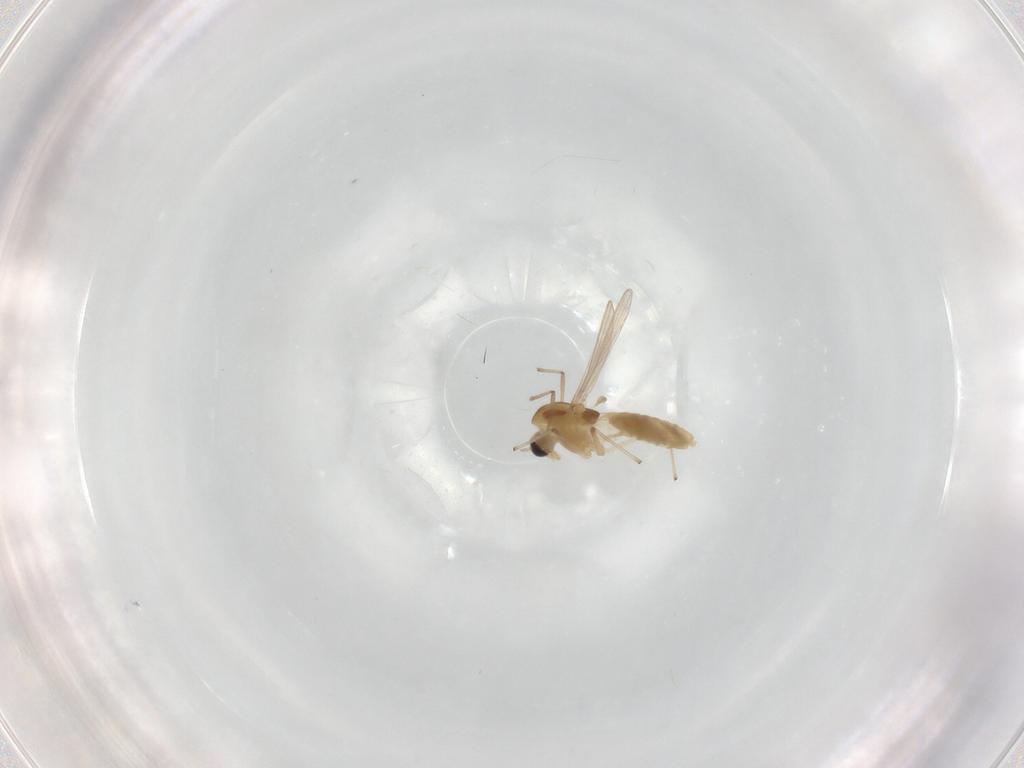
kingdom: Animalia
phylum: Arthropoda
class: Insecta
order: Diptera
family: Chironomidae
